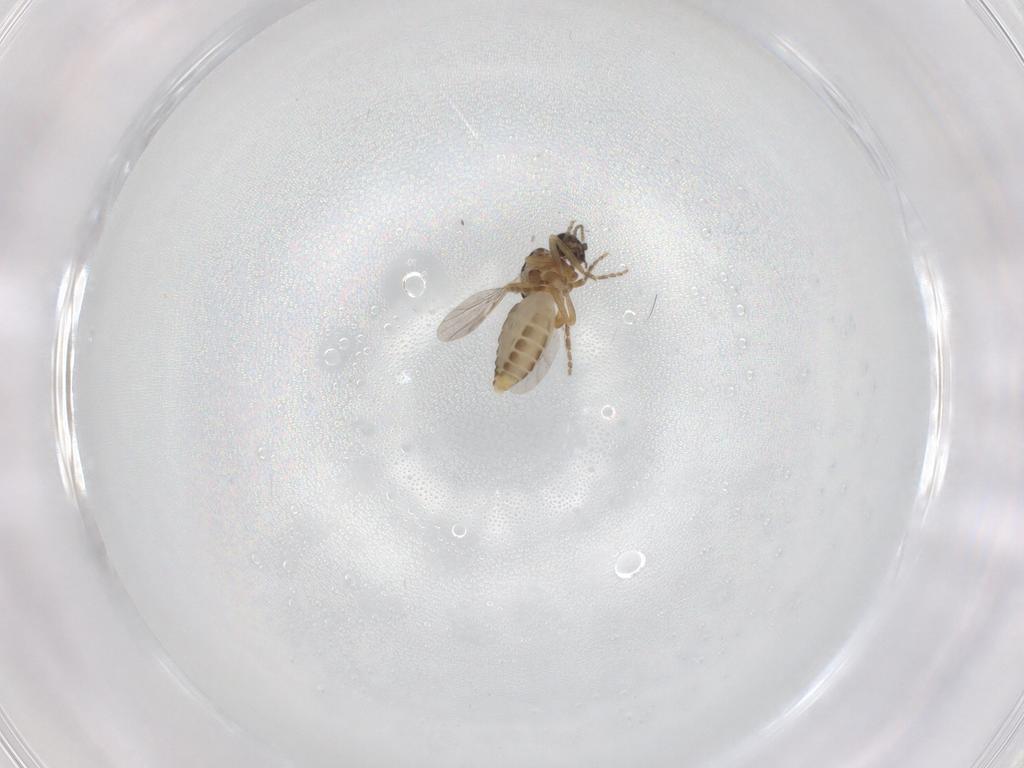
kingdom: Animalia
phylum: Arthropoda
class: Insecta
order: Diptera
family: Ceratopogonidae
